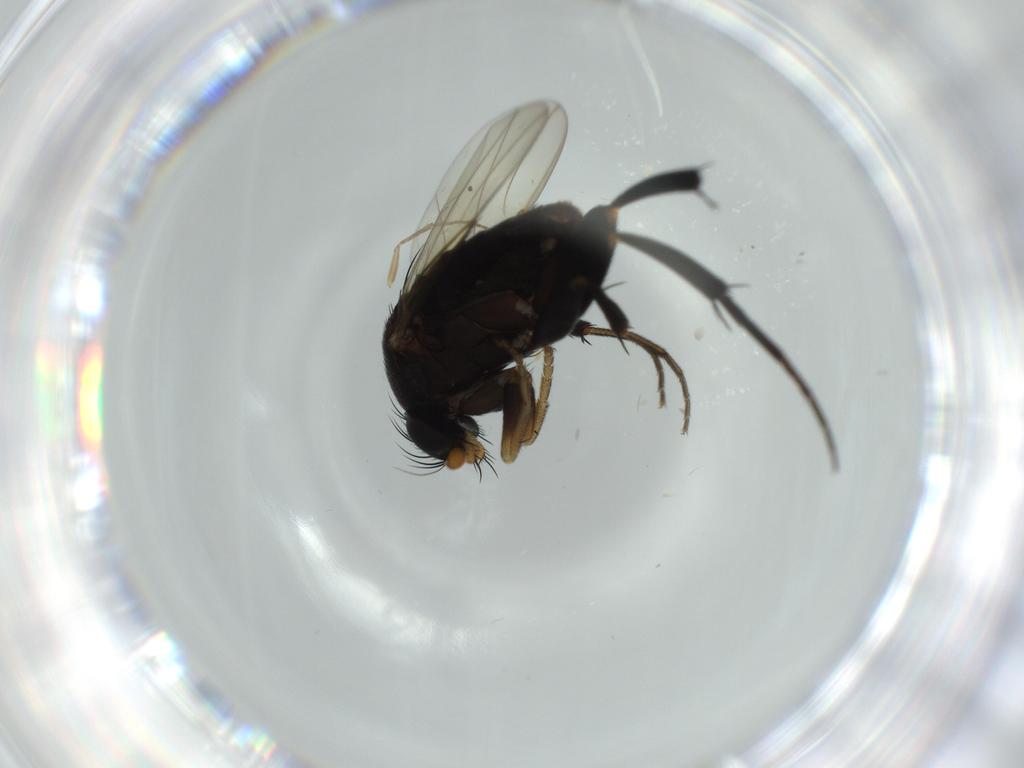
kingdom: Animalia
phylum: Arthropoda
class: Insecta
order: Diptera
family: Phoridae
